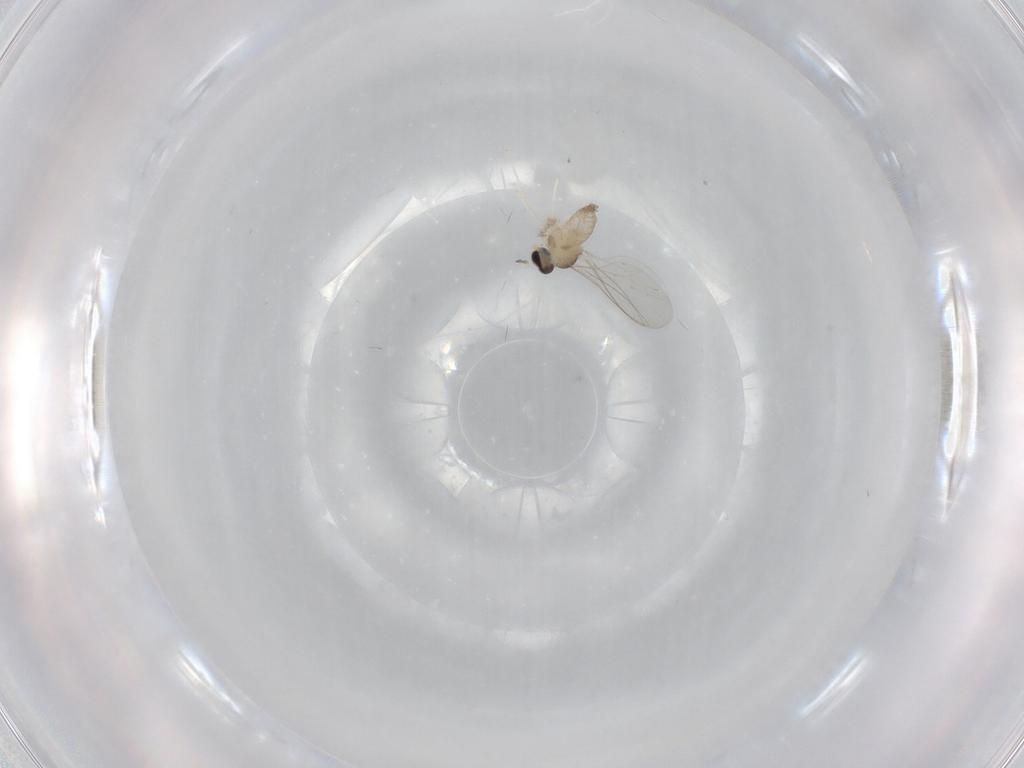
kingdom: Animalia
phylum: Arthropoda
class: Insecta
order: Diptera
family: Cecidomyiidae
